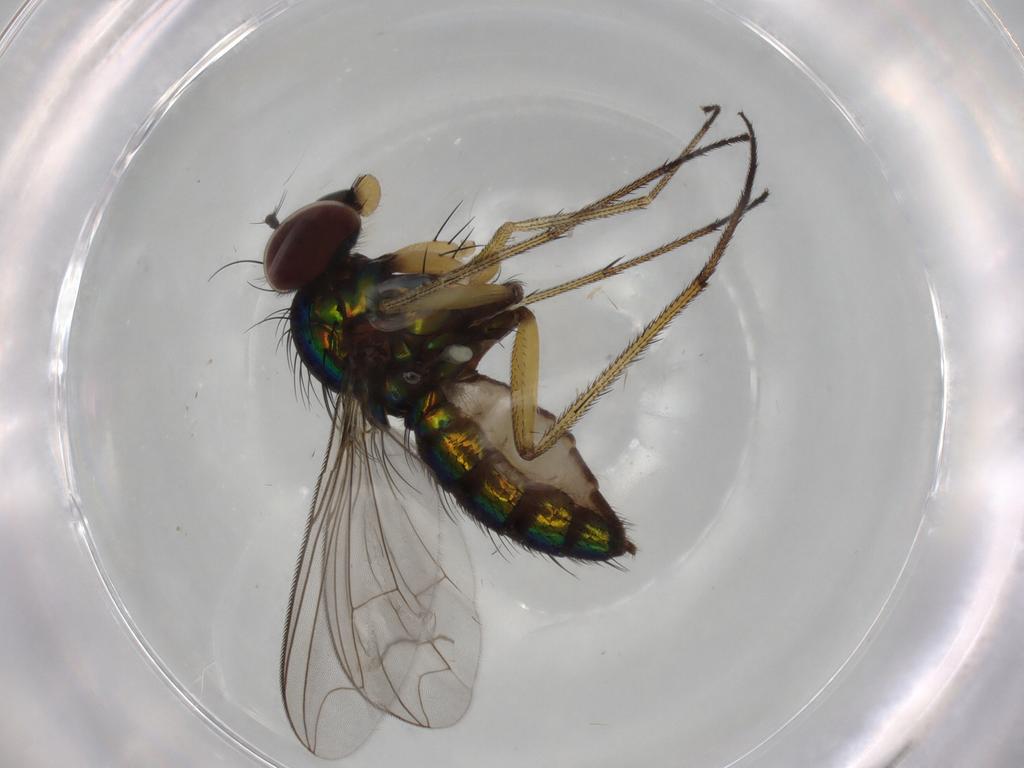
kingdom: Animalia
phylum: Arthropoda
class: Insecta
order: Diptera
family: Dolichopodidae
